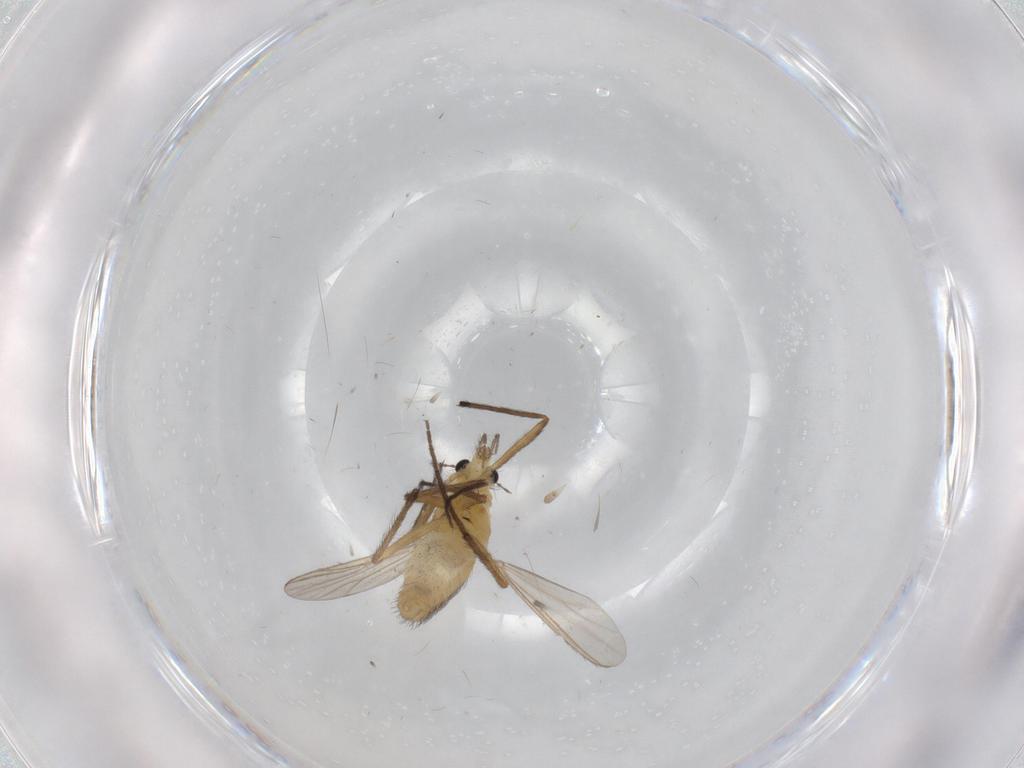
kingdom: Animalia
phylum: Arthropoda
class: Insecta
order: Diptera
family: Chironomidae
